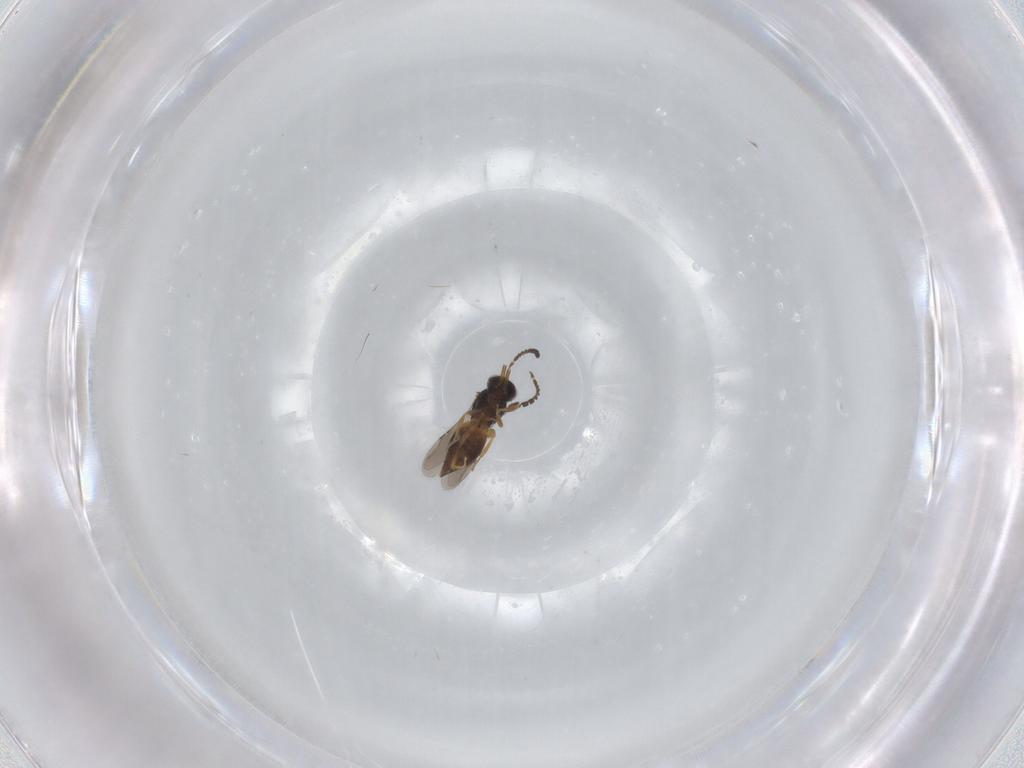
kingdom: Animalia
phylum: Arthropoda
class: Insecta
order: Hymenoptera
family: Ceraphronidae
